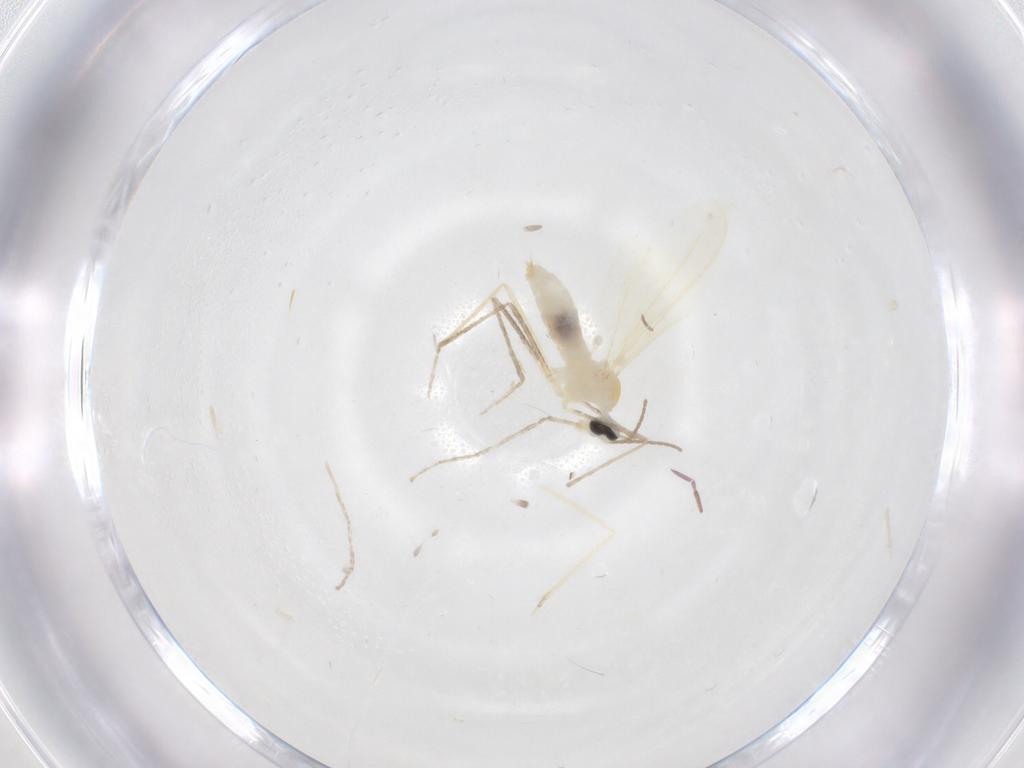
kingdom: Animalia
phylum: Arthropoda
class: Insecta
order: Diptera
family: Cecidomyiidae
